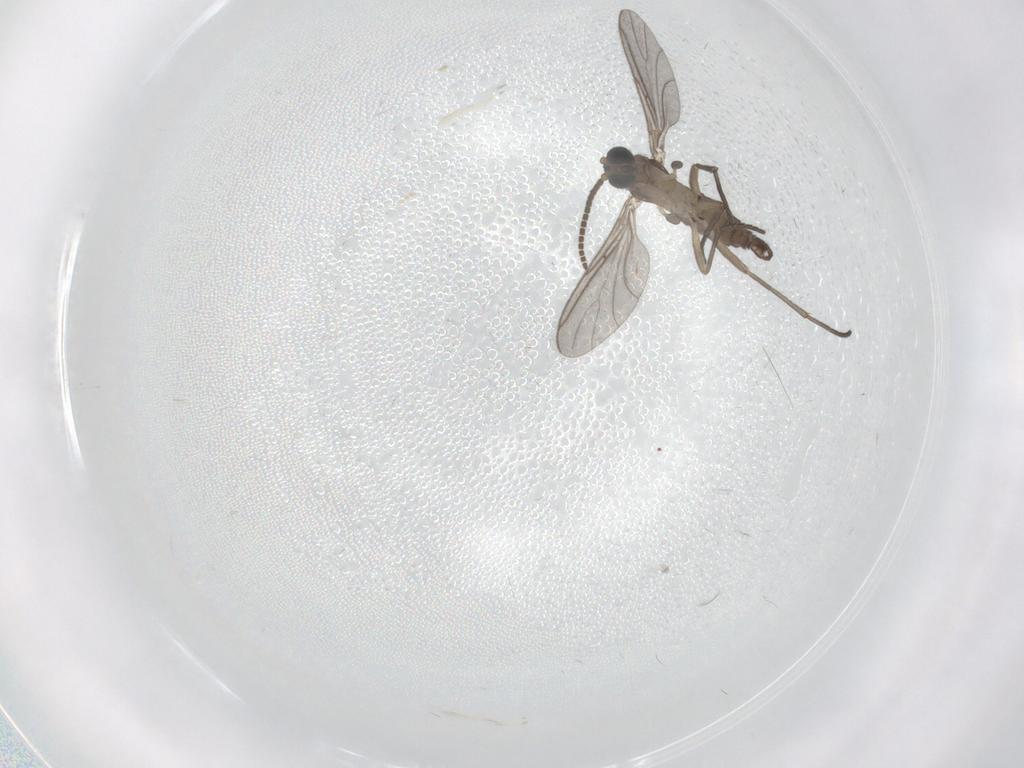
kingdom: Animalia
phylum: Arthropoda
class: Insecta
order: Diptera
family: Sciaridae
